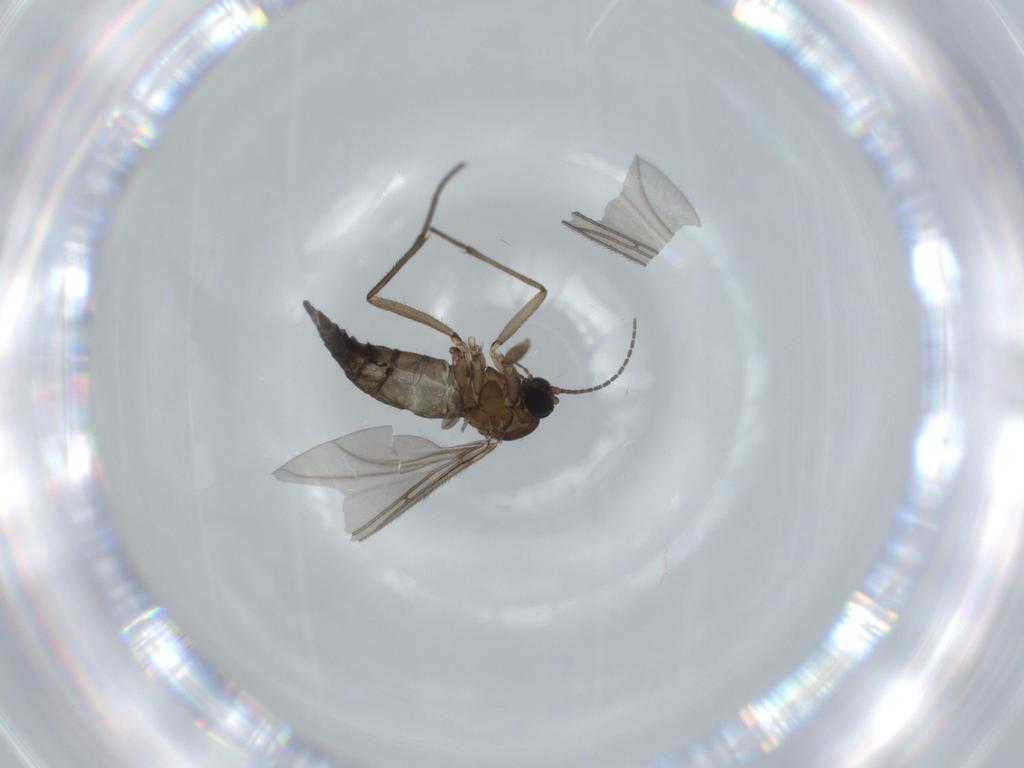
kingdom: Animalia
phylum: Arthropoda
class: Insecta
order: Diptera
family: Sciaridae
